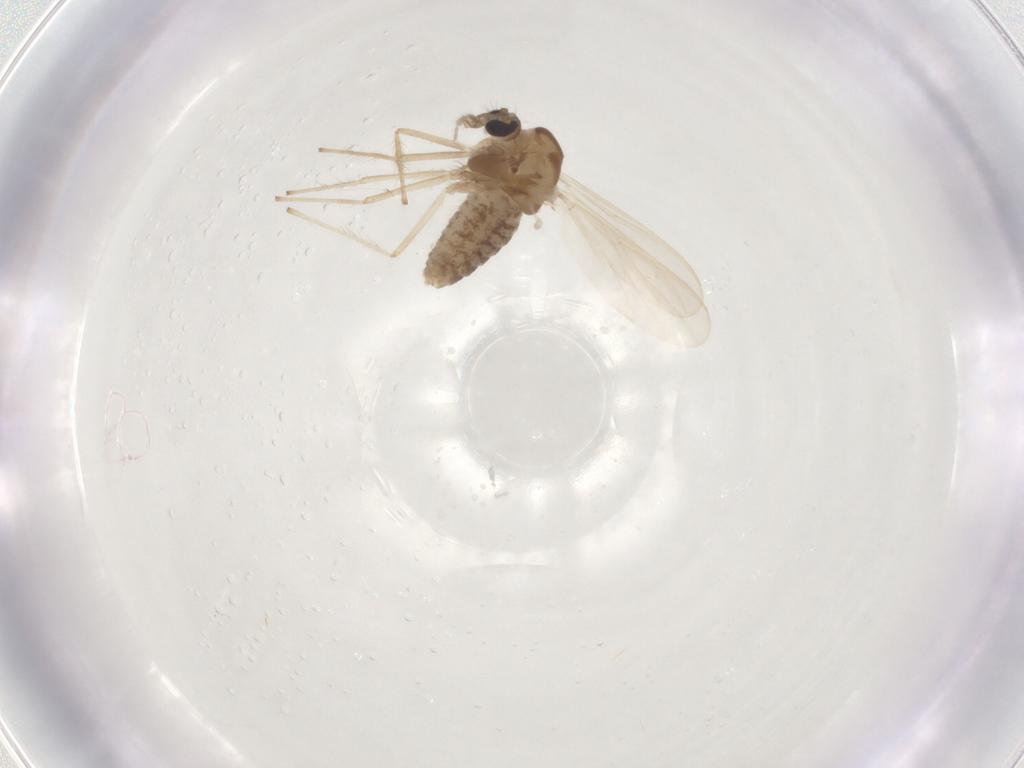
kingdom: Animalia
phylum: Arthropoda
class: Insecta
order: Diptera
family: Chironomidae
